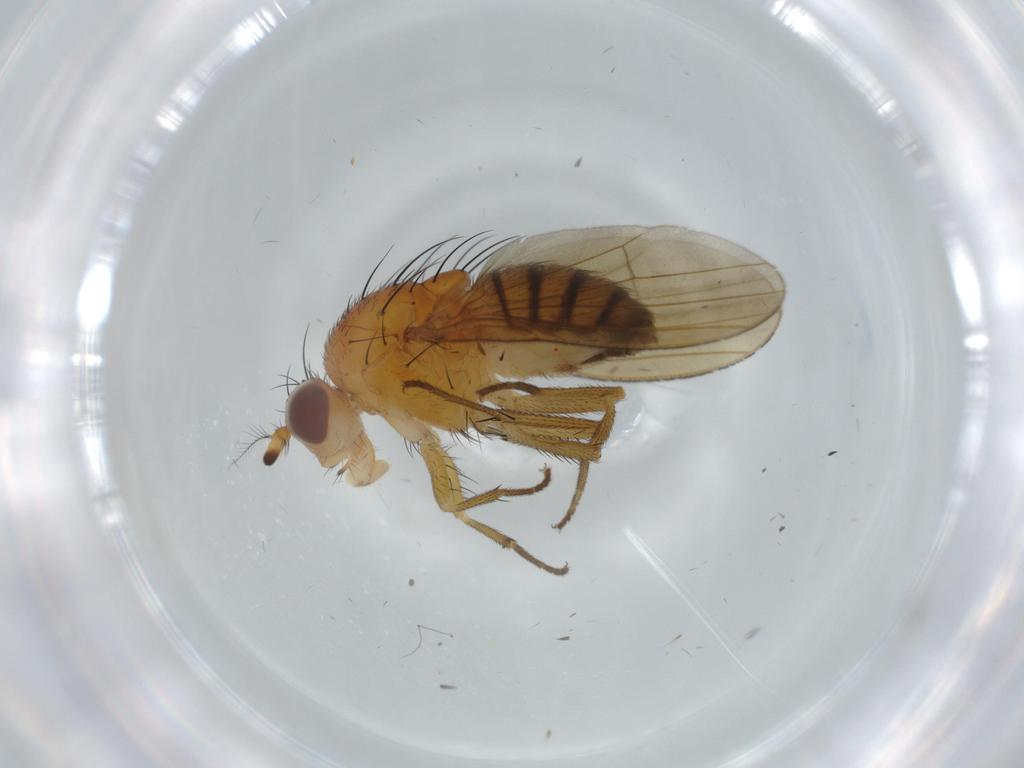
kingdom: Animalia
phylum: Arthropoda
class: Insecta
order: Diptera
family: Lauxaniidae
